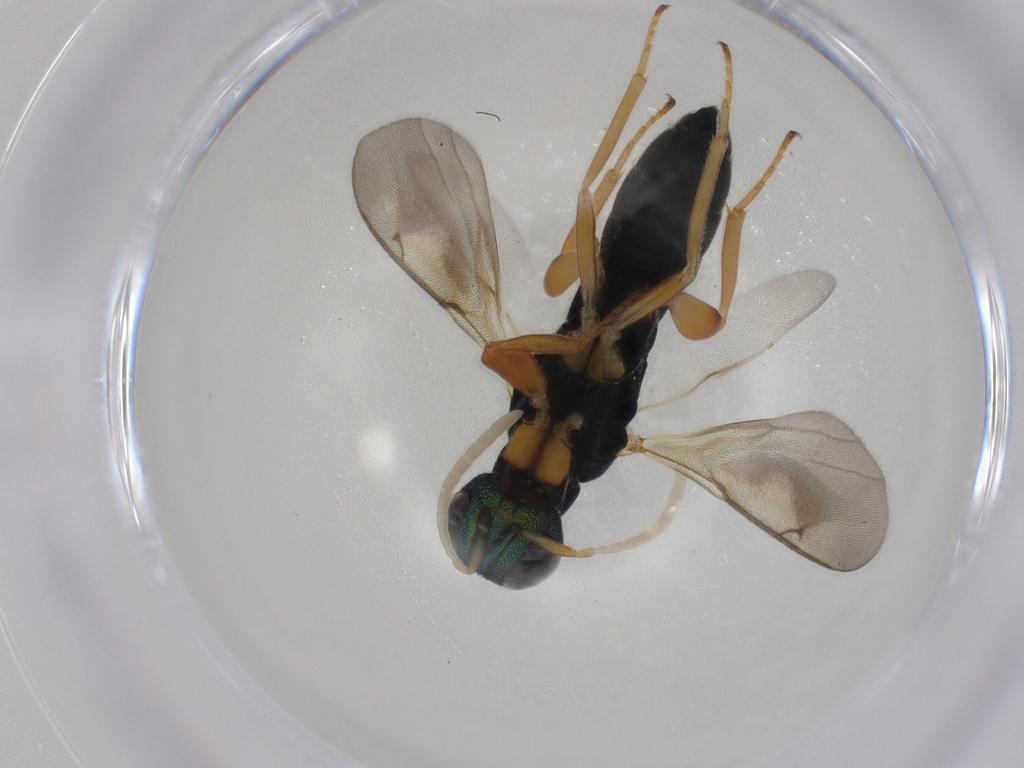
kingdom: Animalia
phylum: Arthropoda
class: Insecta
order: Hymenoptera
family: Lyciscidae
